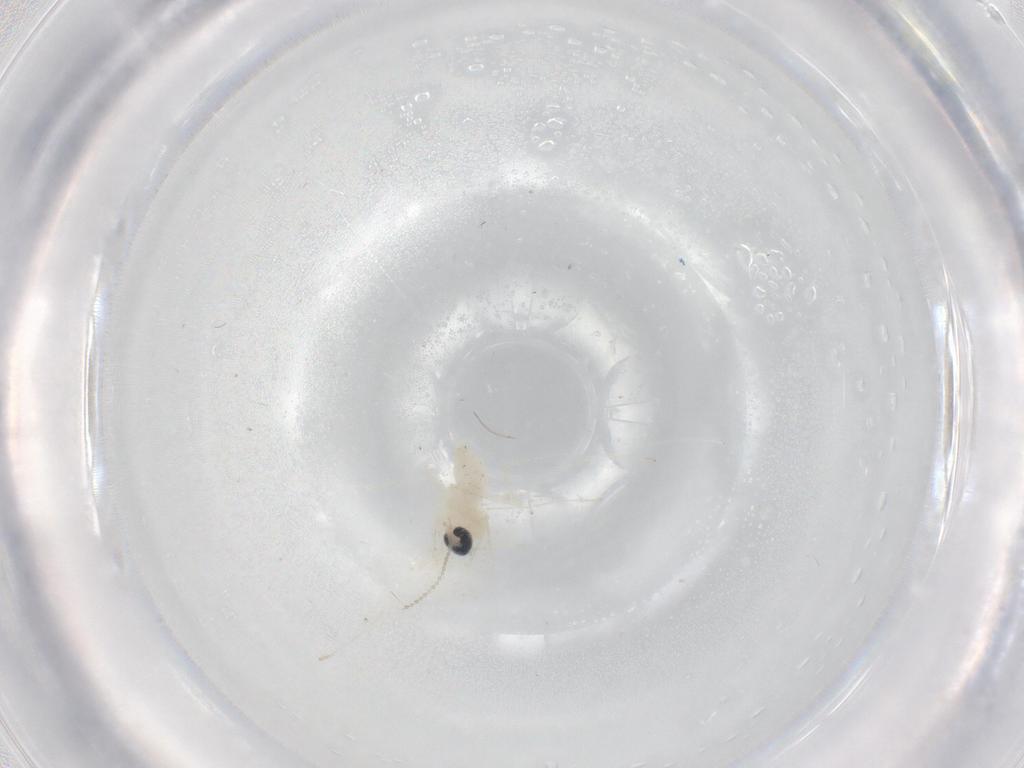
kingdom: Animalia
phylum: Arthropoda
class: Insecta
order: Diptera
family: Cecidomyiidae
